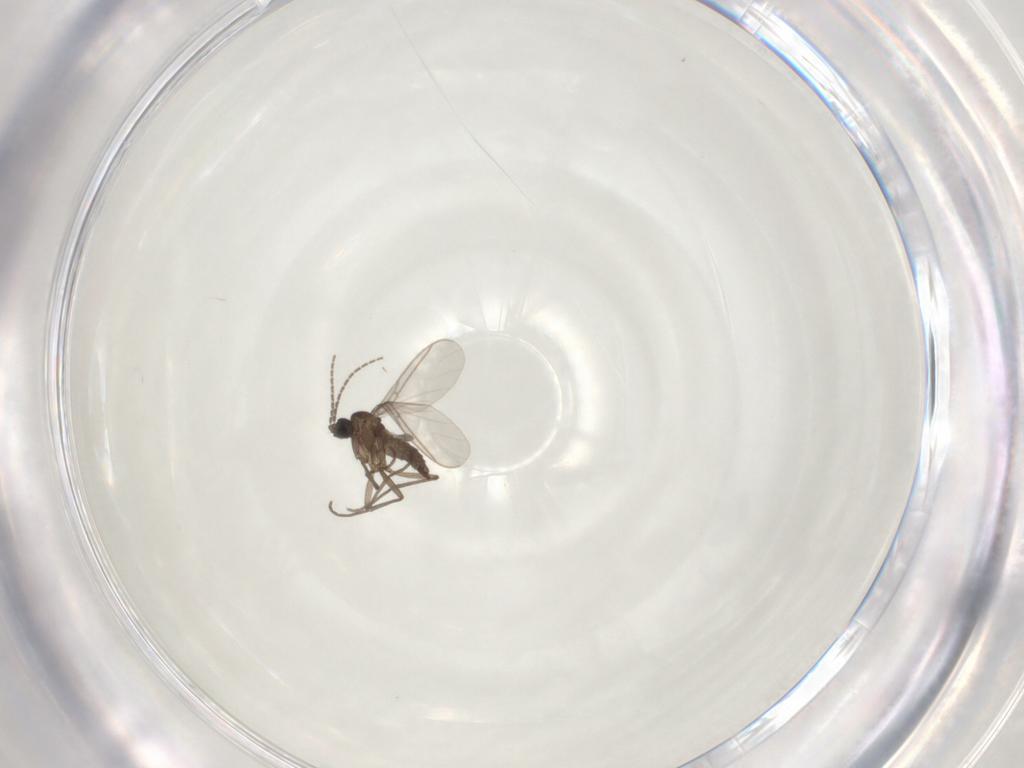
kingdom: Animalia
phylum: Arthropoda
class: Insecta
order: Diptera
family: Sciaridae
